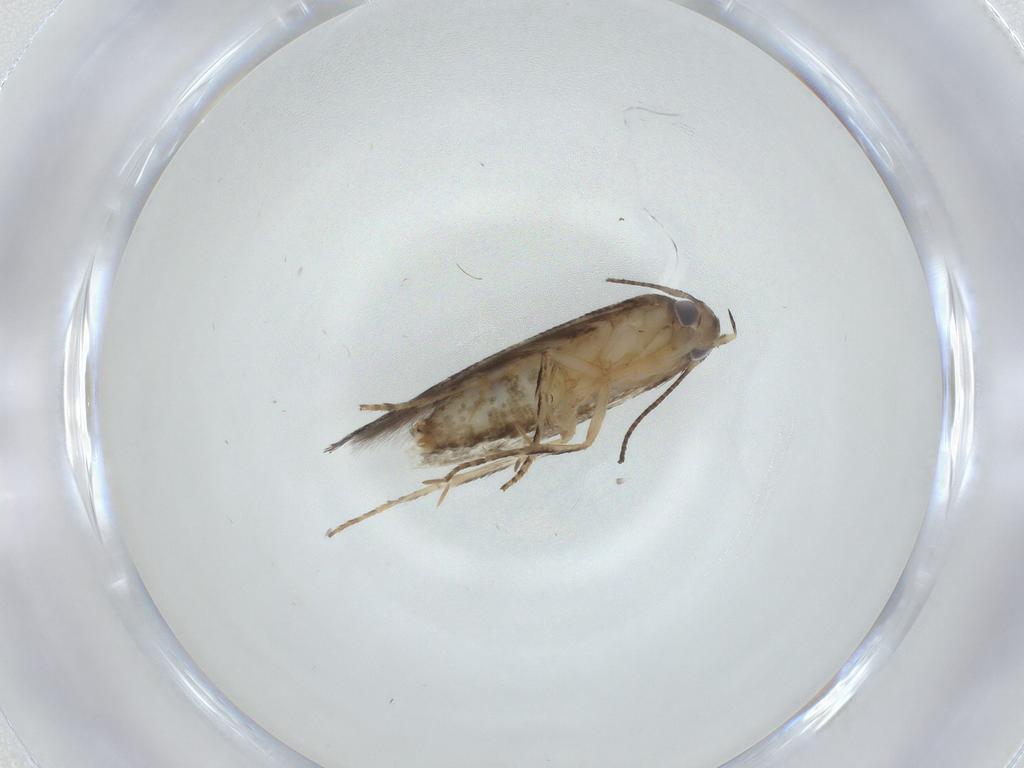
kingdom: Animalia
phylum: Arthropoda
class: Insecta
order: Lepidoptera
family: Elachistidae
